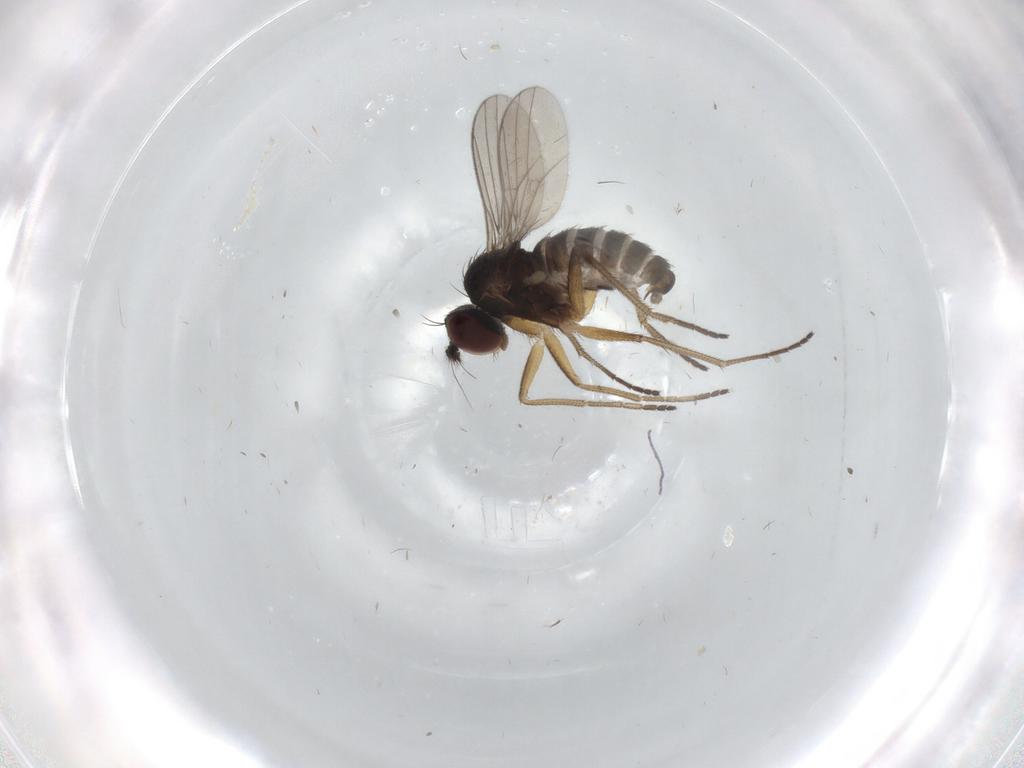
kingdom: Animalia
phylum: Arthropoda
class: Insecta
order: Diptera
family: Dolichopodidae
